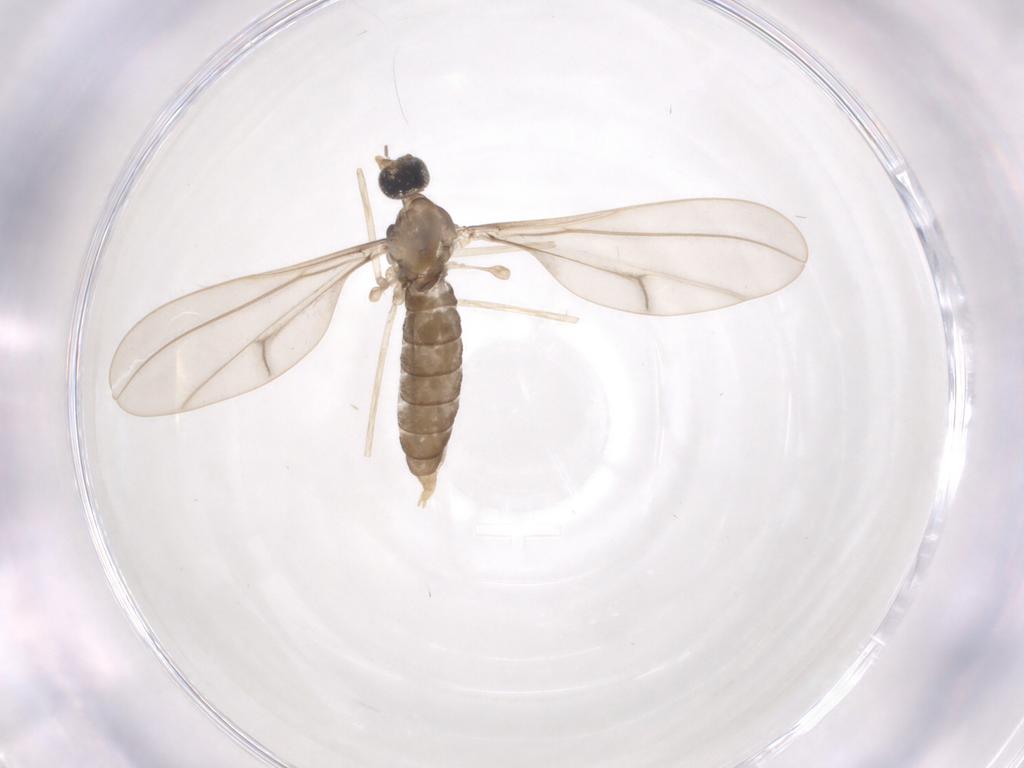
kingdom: Animalia
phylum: Arthropoda
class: Insecta
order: Diptera
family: Cecidomyiidae
